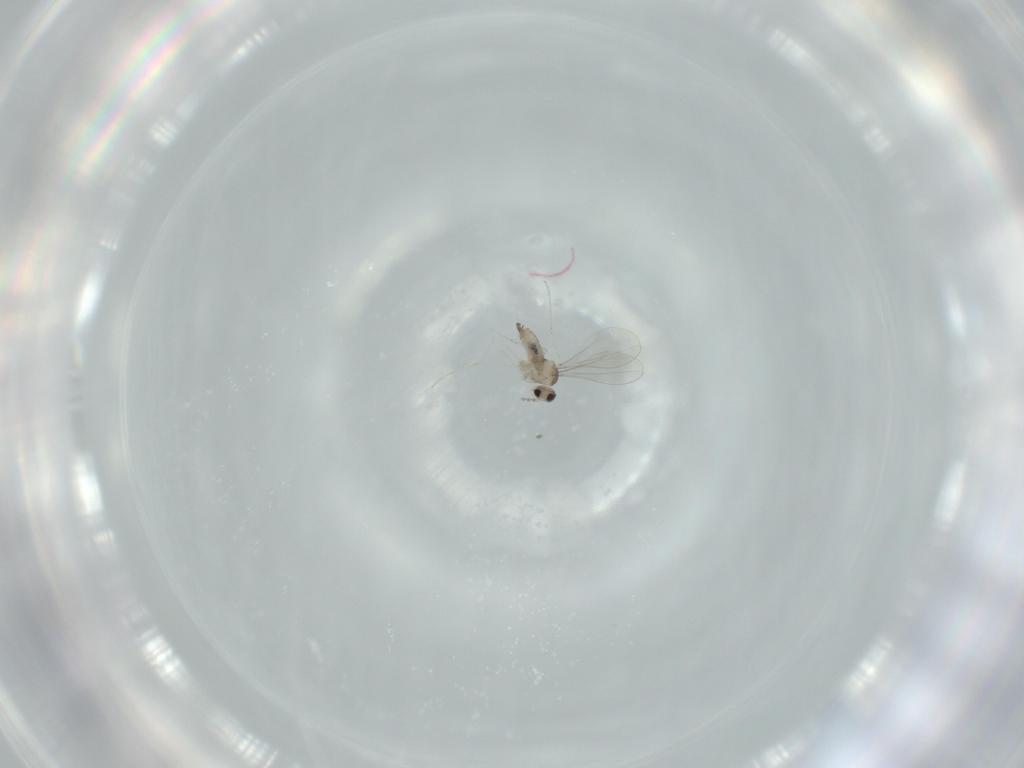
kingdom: Animalia
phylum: Arthropoda
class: Insecta
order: Diptera
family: Cecidomyiidae
